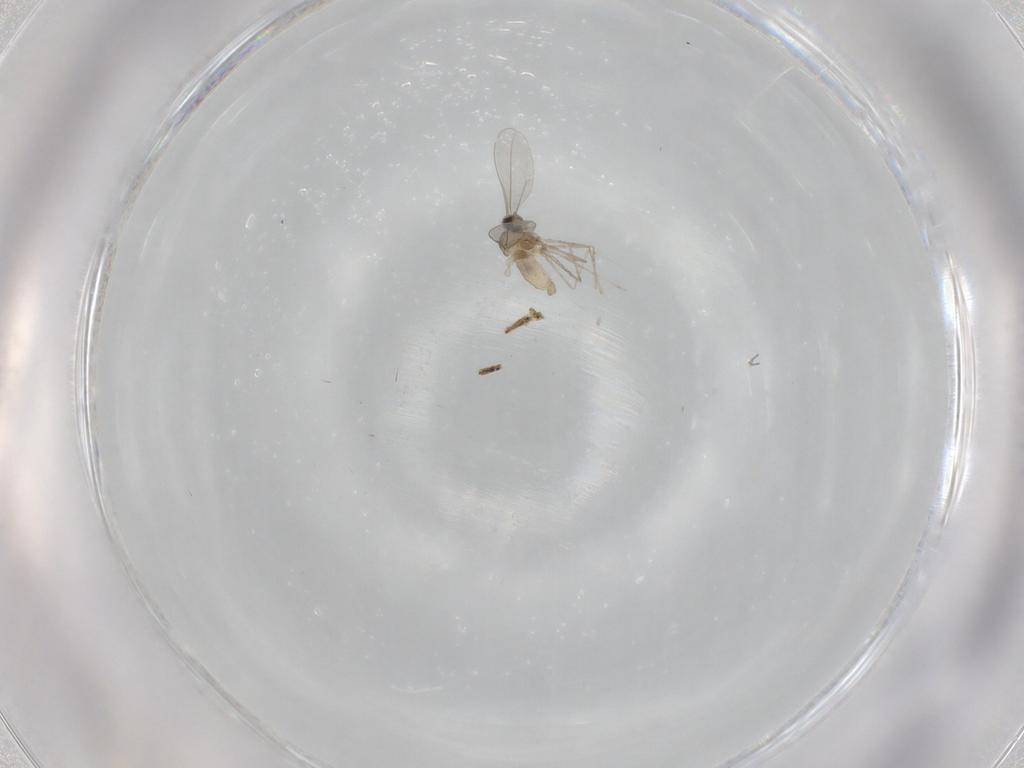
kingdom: Animalia
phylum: Arthropoda
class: Insecta
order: Diptera
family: Cecidomyiidae
